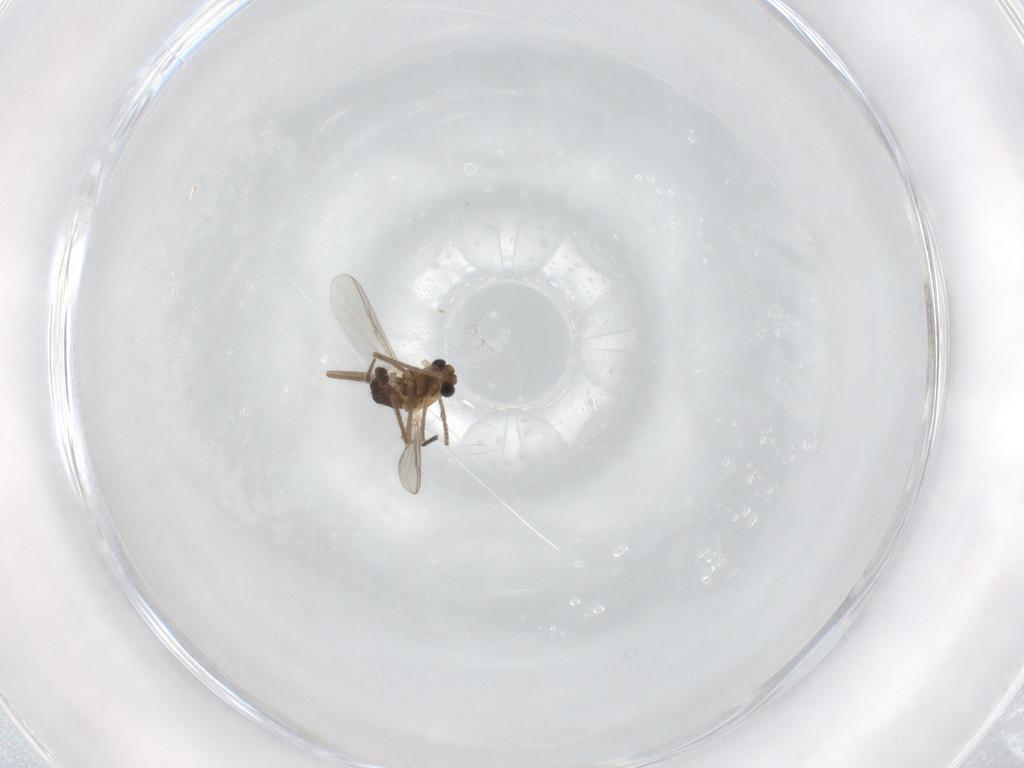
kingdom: Animalia
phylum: Arthropoda
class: Insecta
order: Diptera
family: Chironomidae
